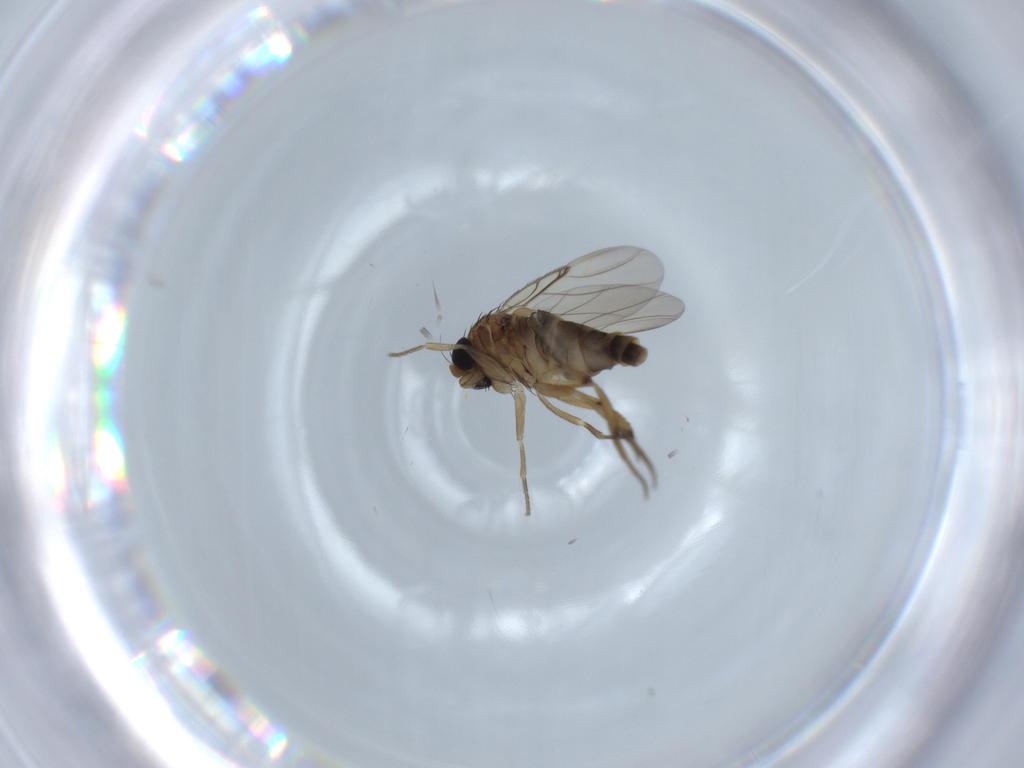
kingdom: Animalia
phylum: Arthropoda
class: Insecta
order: Diptera
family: Phoridae
